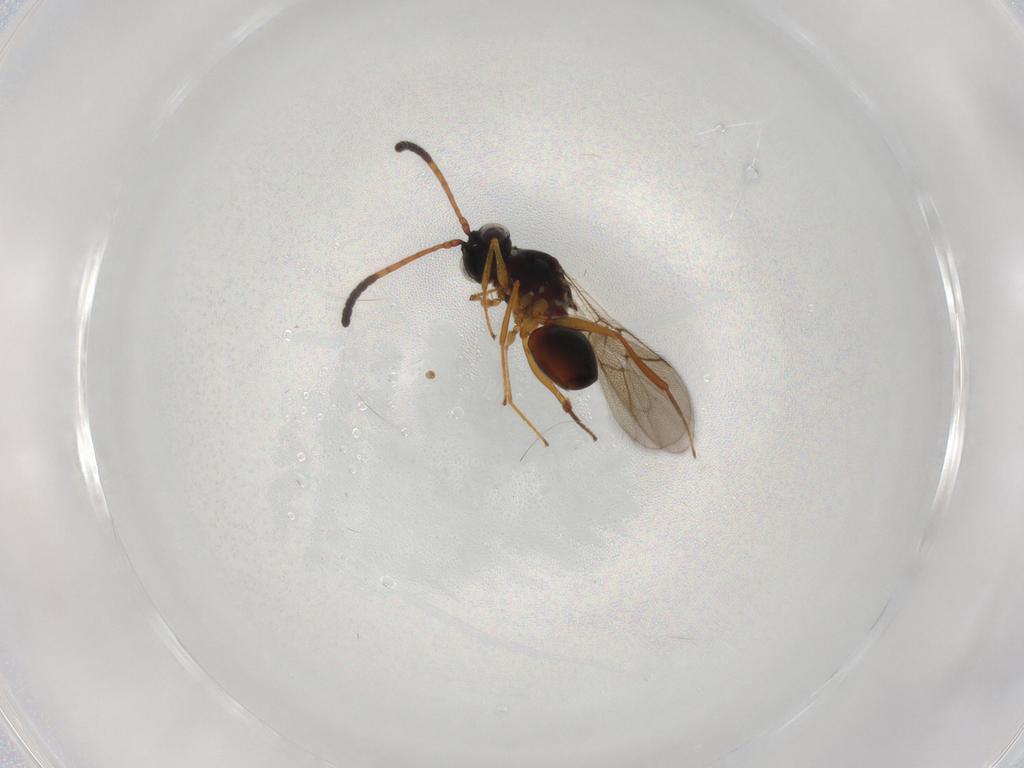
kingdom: Animalia
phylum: Arthropoda
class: Insecta
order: Hymenoptera
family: Figitidae
